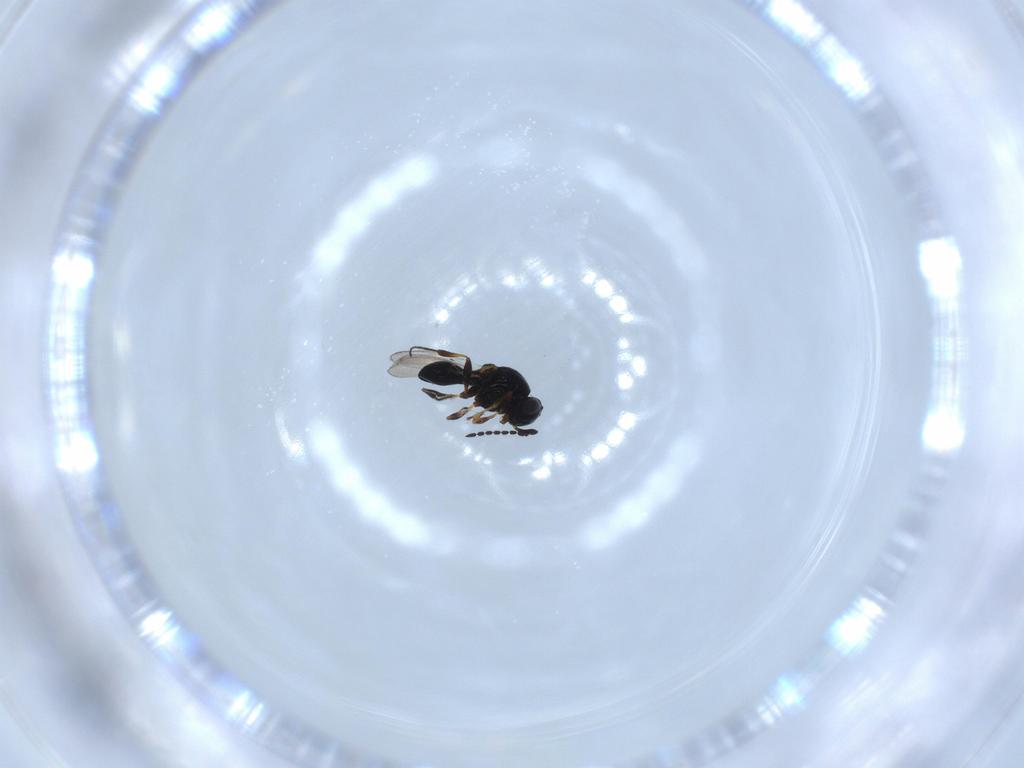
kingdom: Animalia
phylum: Arthropoda
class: Insecta
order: Hymenoptera
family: Platygastridae
